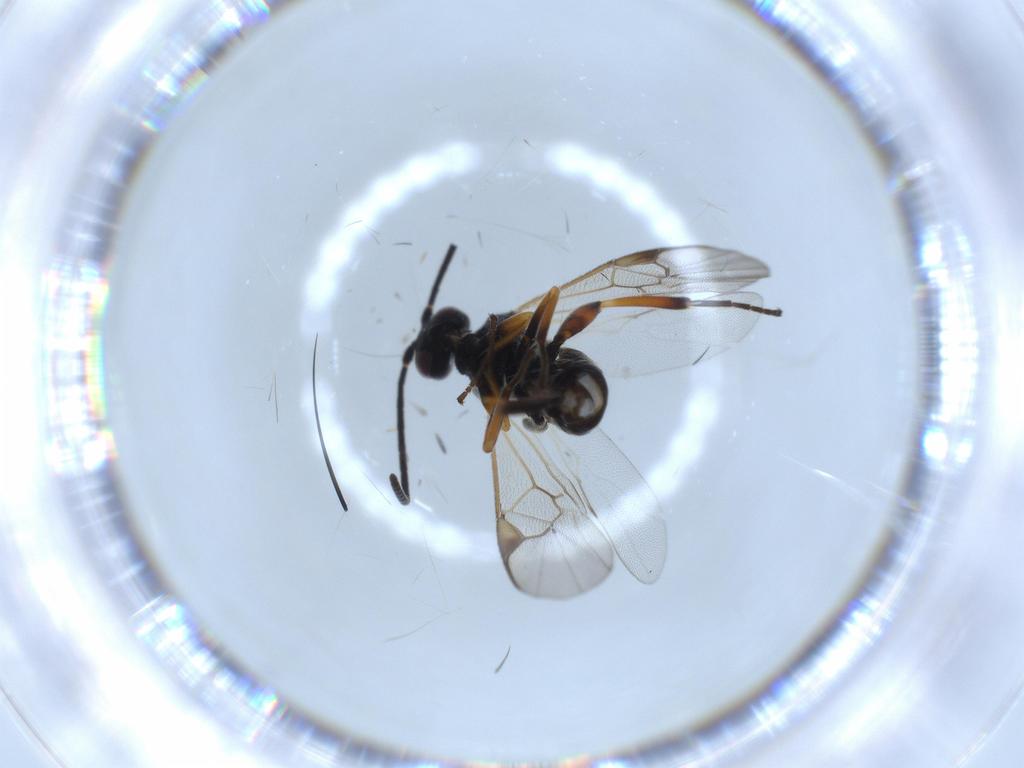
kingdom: Animalia
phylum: Arthropoda
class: Insecta
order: Hymenoptera
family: Braconidae
